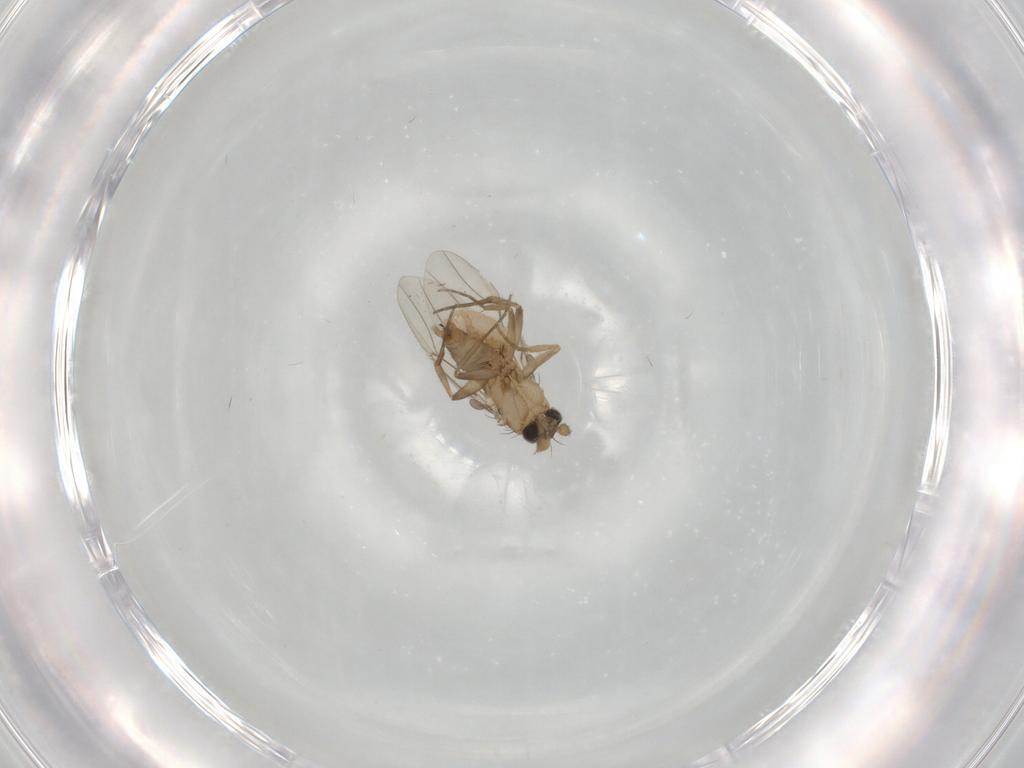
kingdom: Animalia
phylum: Arthropoda
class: Insecta
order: Diptera
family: Phoridae
